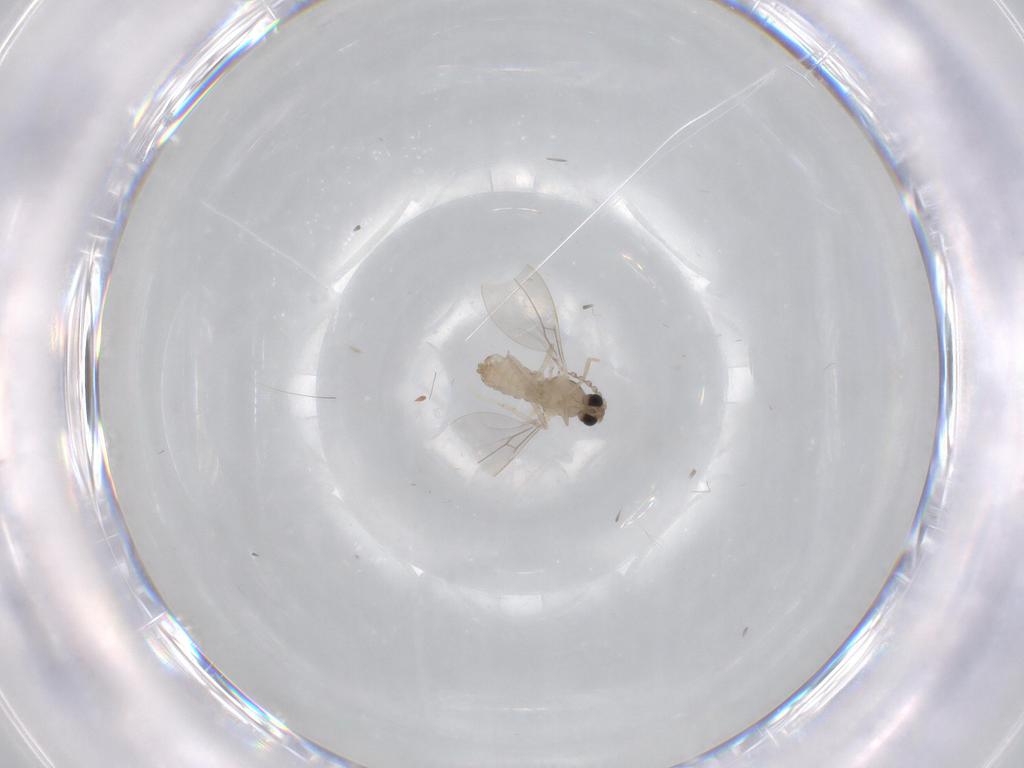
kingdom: Animalia
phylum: Arthropoda
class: Insecta
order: Diptera
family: Cecidomyiidae
